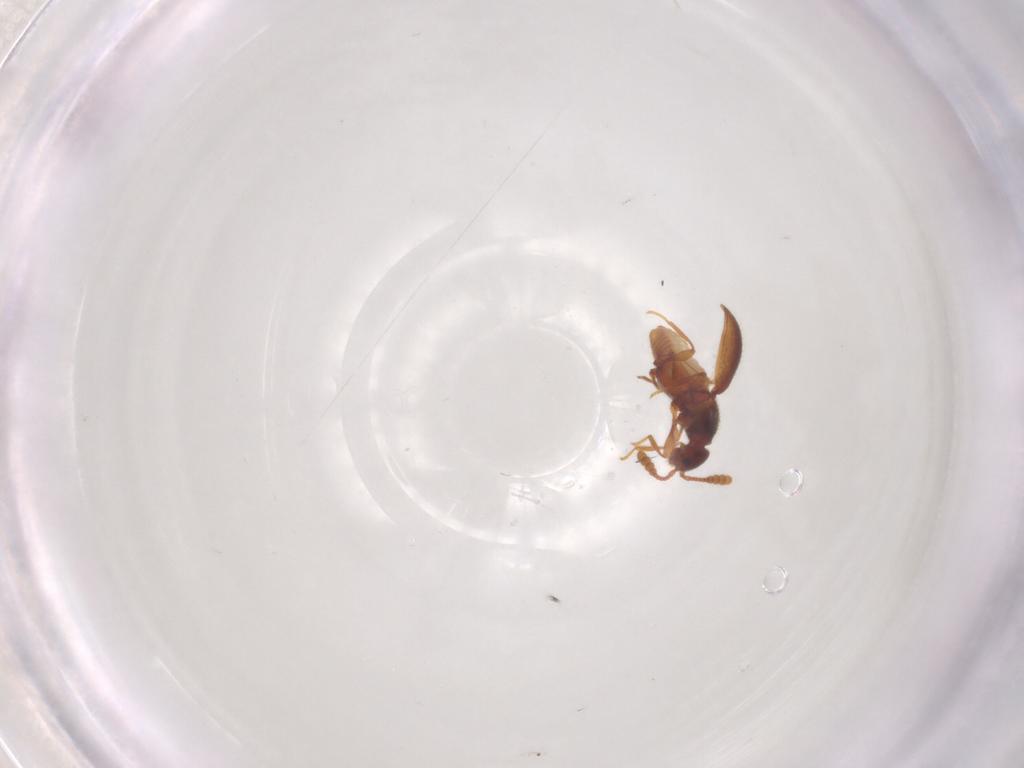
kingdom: Animalia
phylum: Arthropoda
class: Insecta
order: Coleoptera
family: Staphylinidae
